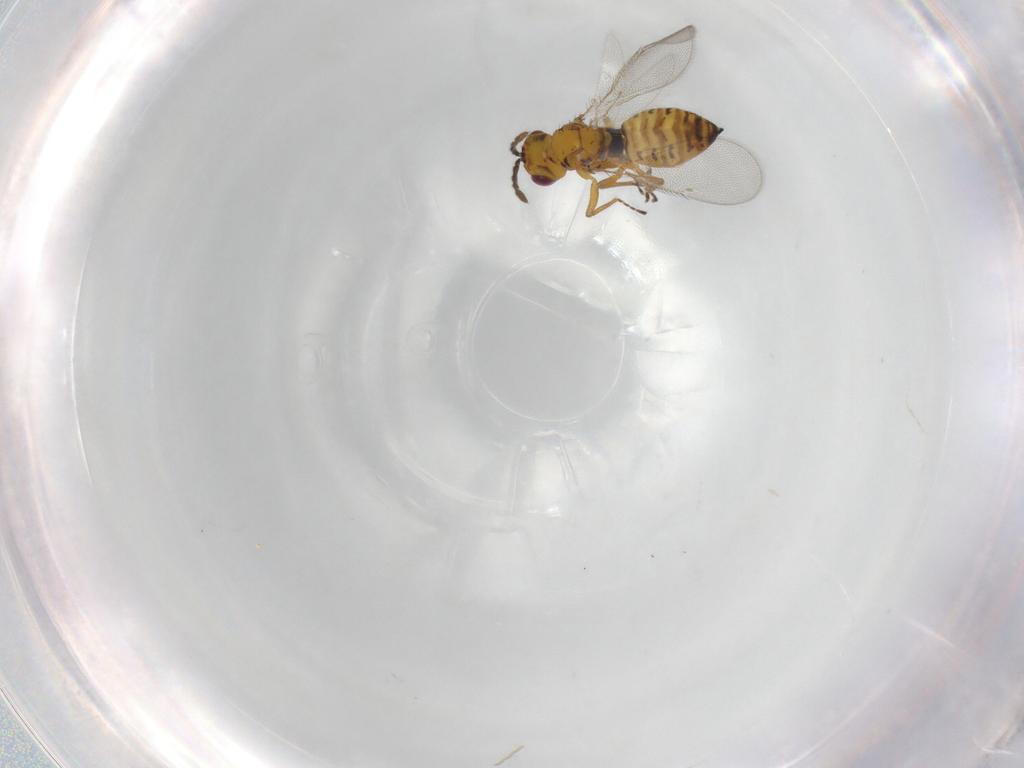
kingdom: Animalia
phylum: Arthropoda
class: Insecta
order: Hymenoptera
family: Eulophidae
